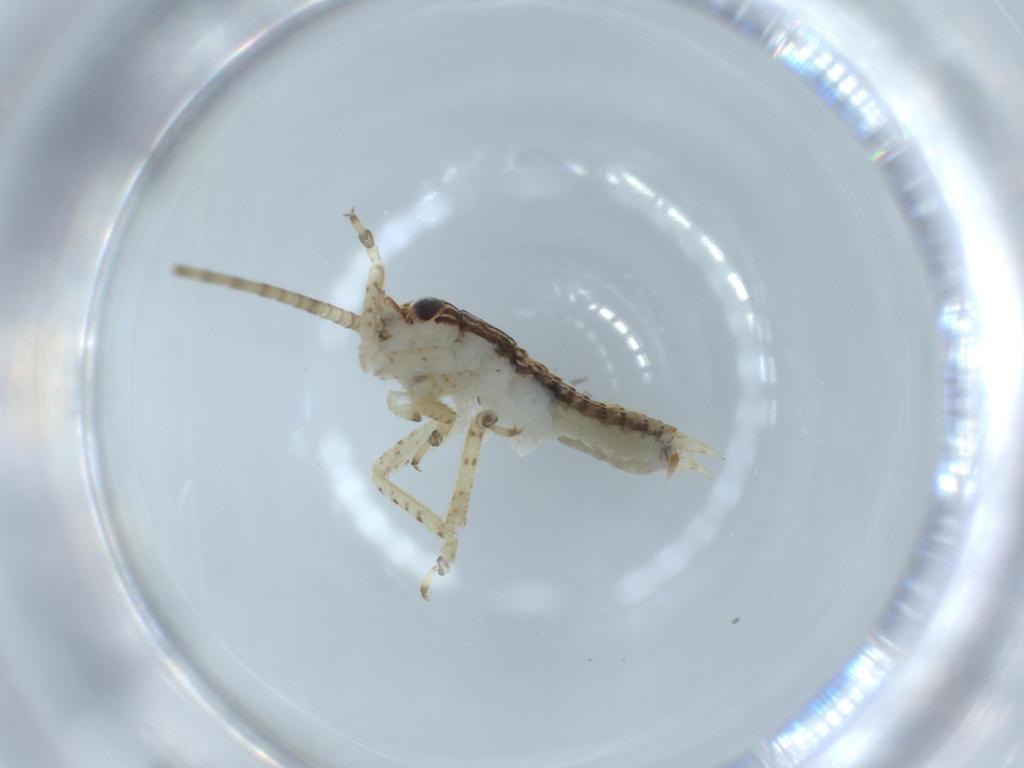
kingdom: Animalia
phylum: Arthropoda
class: Insecta
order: Orthoptera
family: Gryllidae
